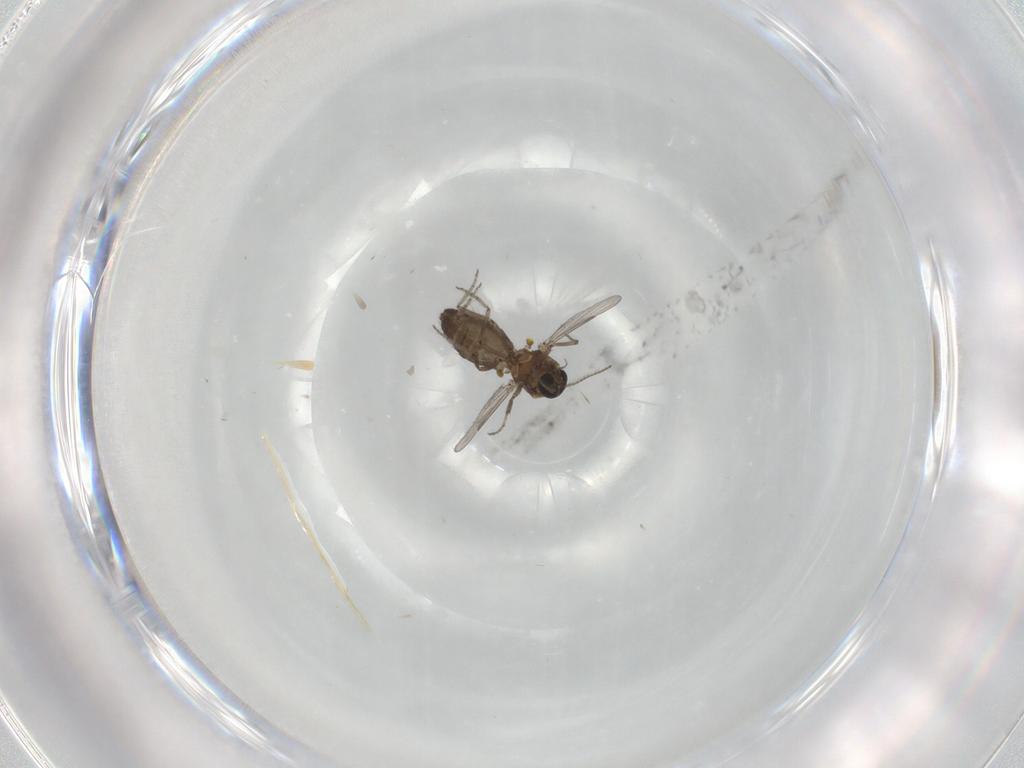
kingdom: Animalia
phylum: Arthropoda
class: Insecta
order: Diptera
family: Ceratopogonidae
